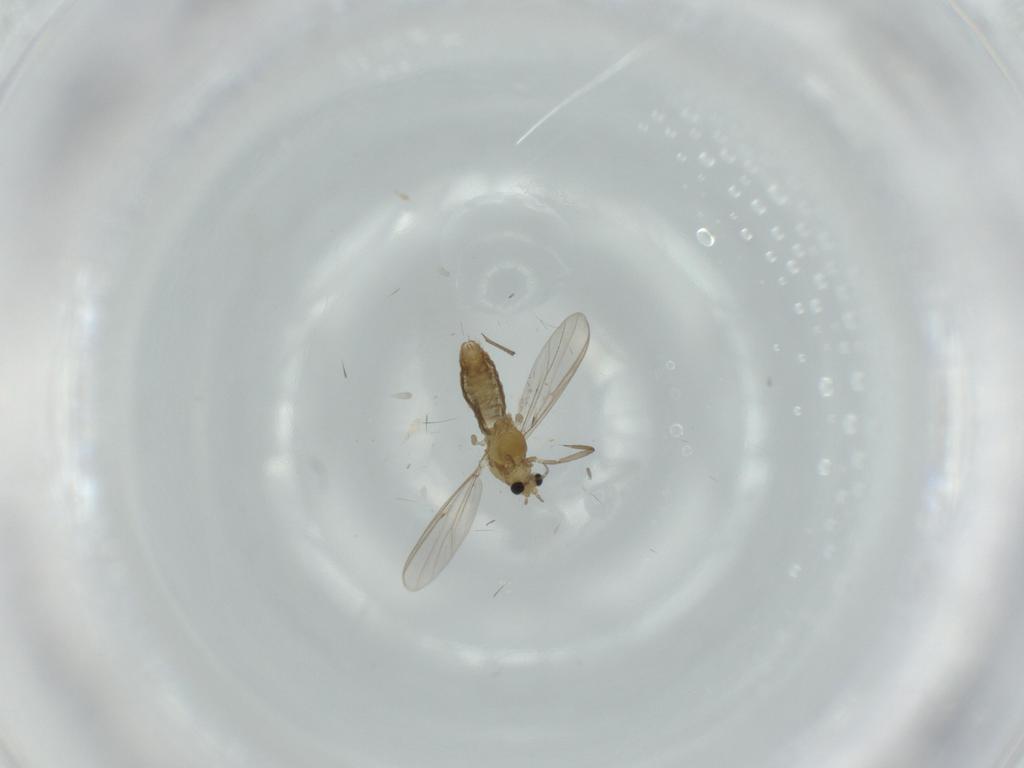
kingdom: Animalia
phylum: Arthropoda
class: Insecta
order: Diptera
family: Chironomidae
